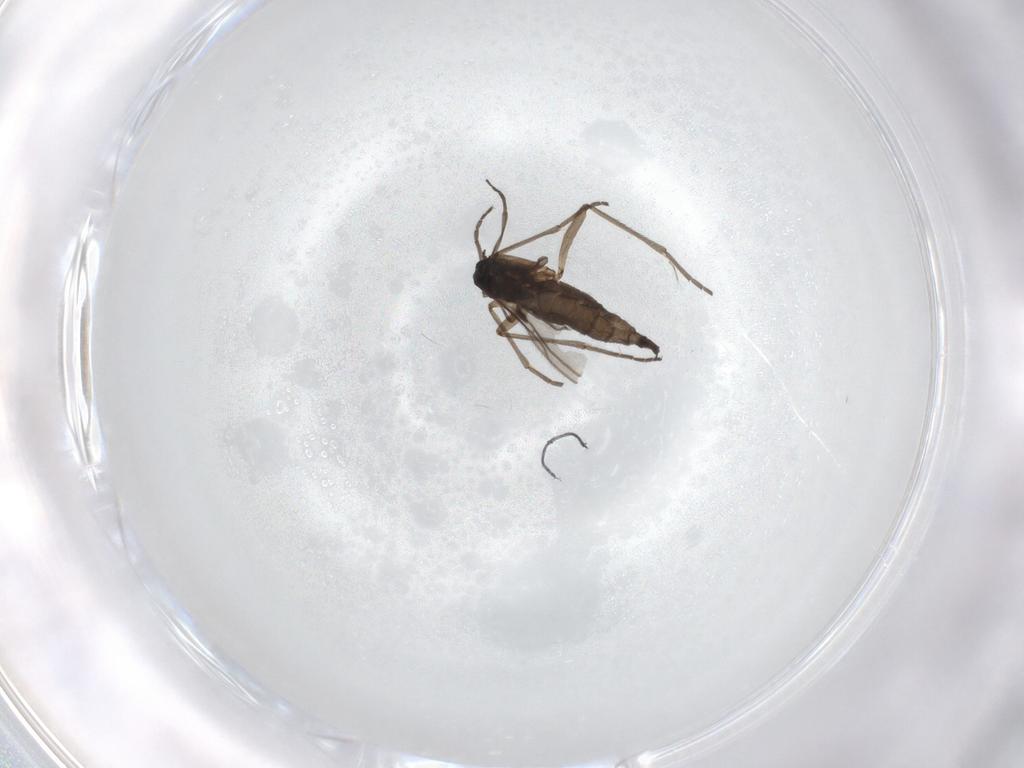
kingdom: Animalia
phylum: Arthropoda
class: Insecta
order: Diptera
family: Sciaridae
